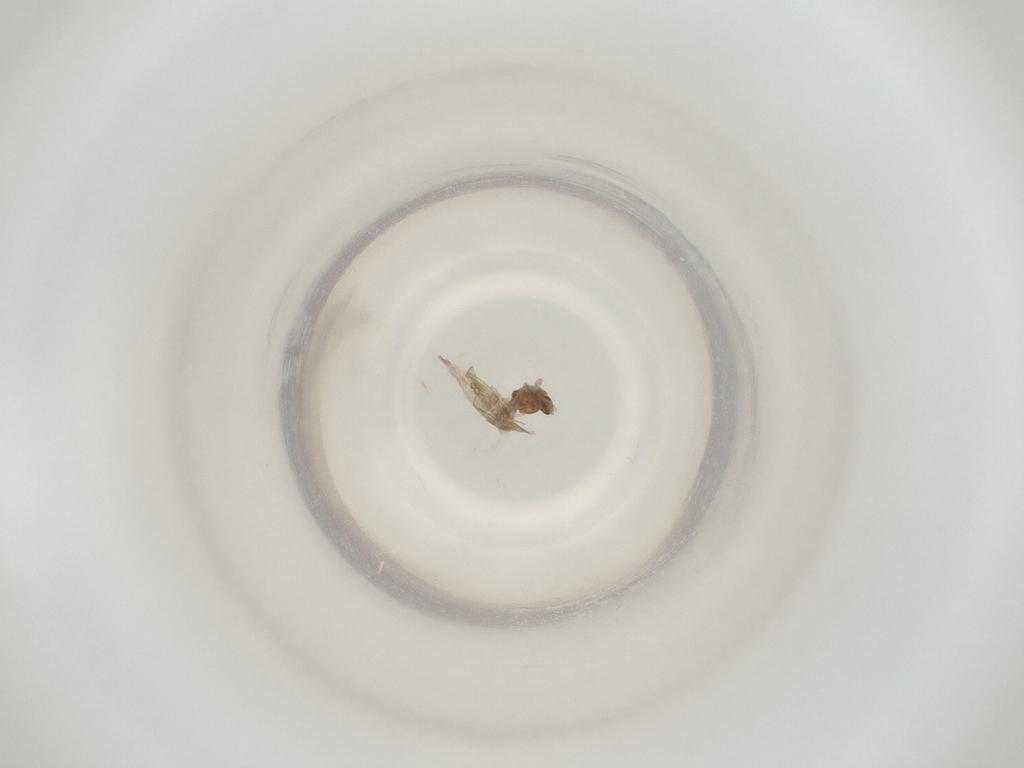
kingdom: Animalia
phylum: Arthropoda
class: Insecta
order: Diptera
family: Cecidomyiidae
